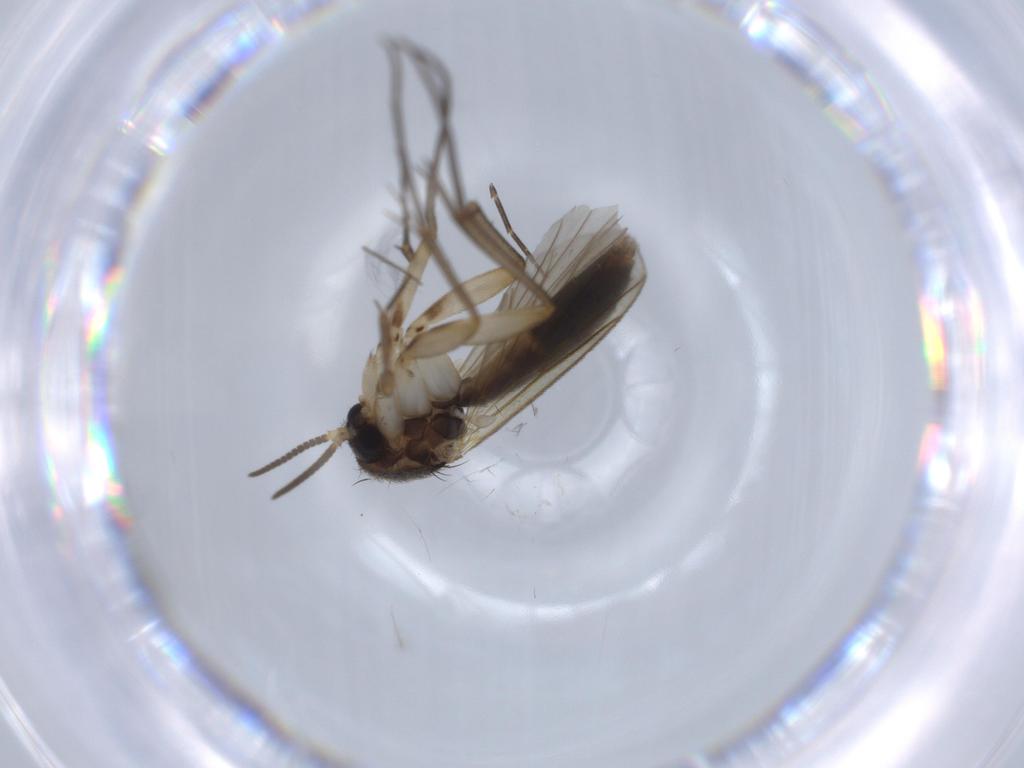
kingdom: Animalia
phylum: Arthropoda
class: Insecta
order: Diptera
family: Mycetophilidae
